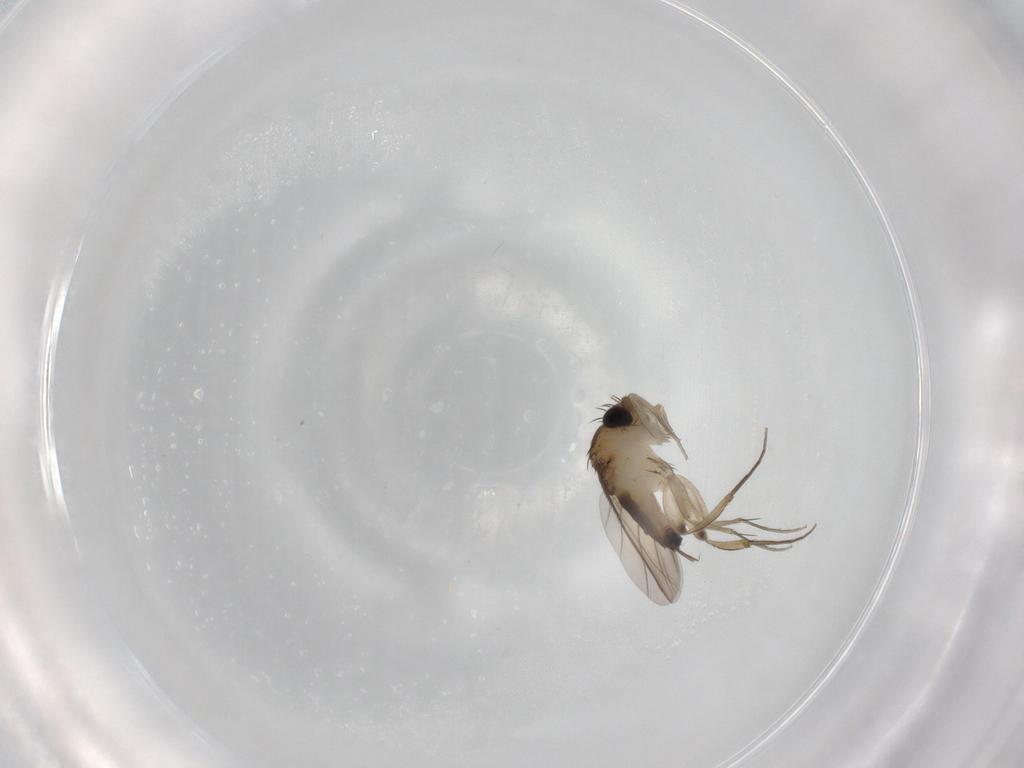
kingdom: Animalia
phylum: Arthropoda
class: Insecta
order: Diptera
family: Phoridae
